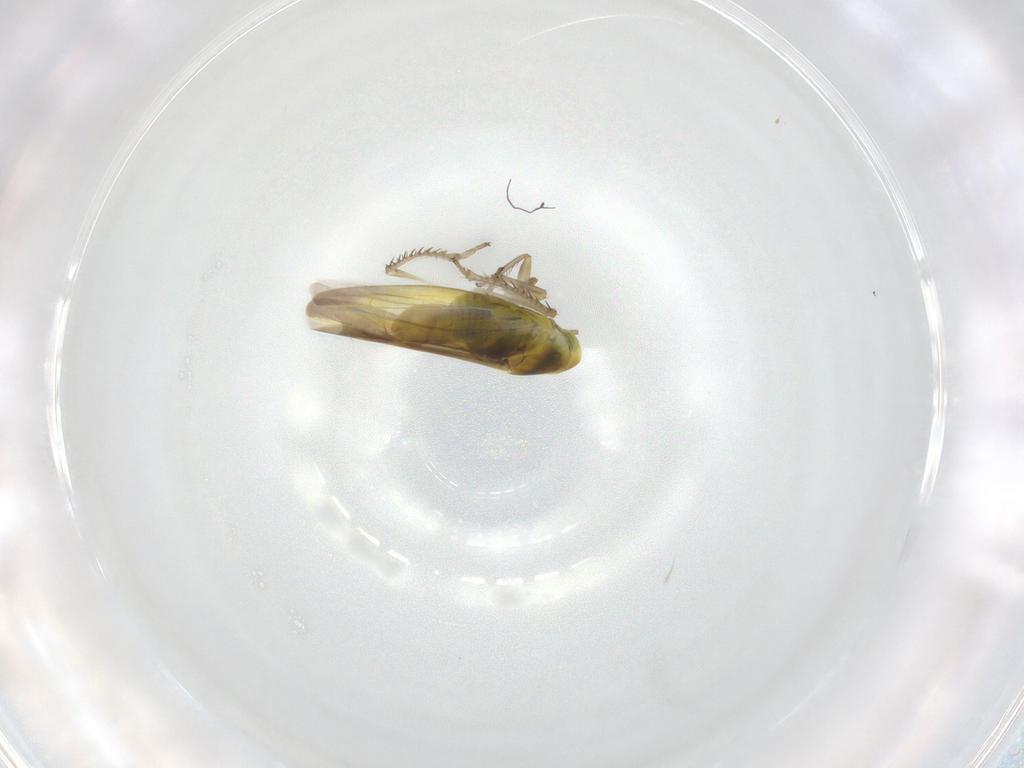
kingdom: Animalia
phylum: Arthropoda
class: Insecta
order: Hemiptera
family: Cicadellidae
